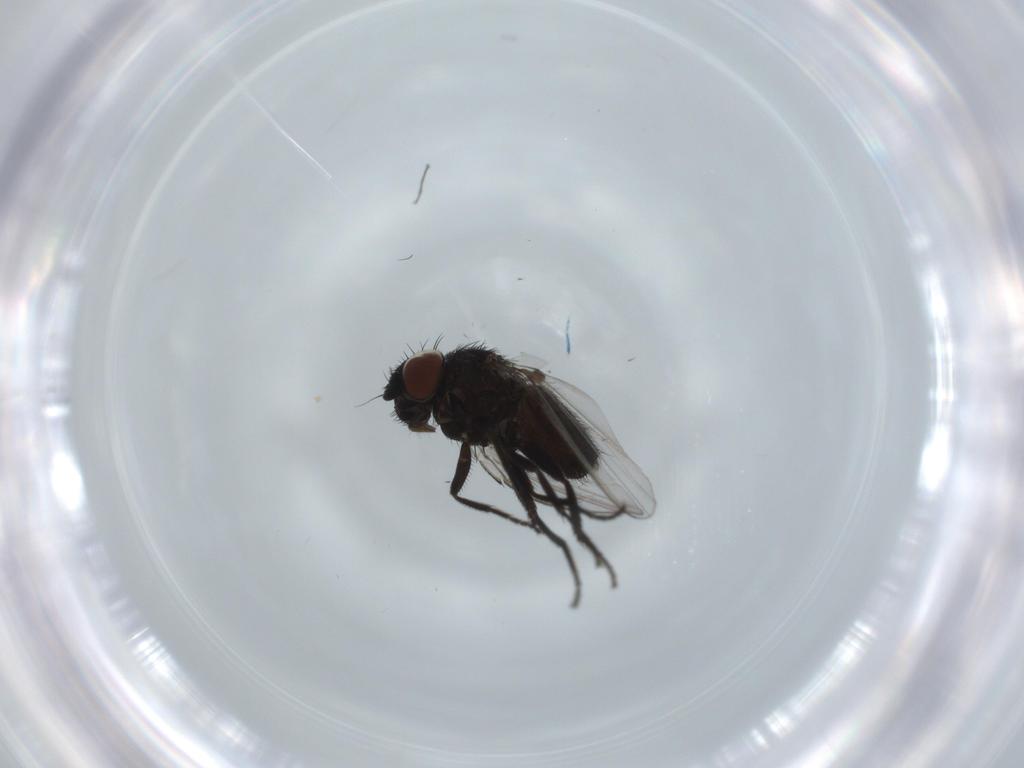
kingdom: Animalia
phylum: Arthropoda
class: Insecta
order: Diptera
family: Milichiidae
